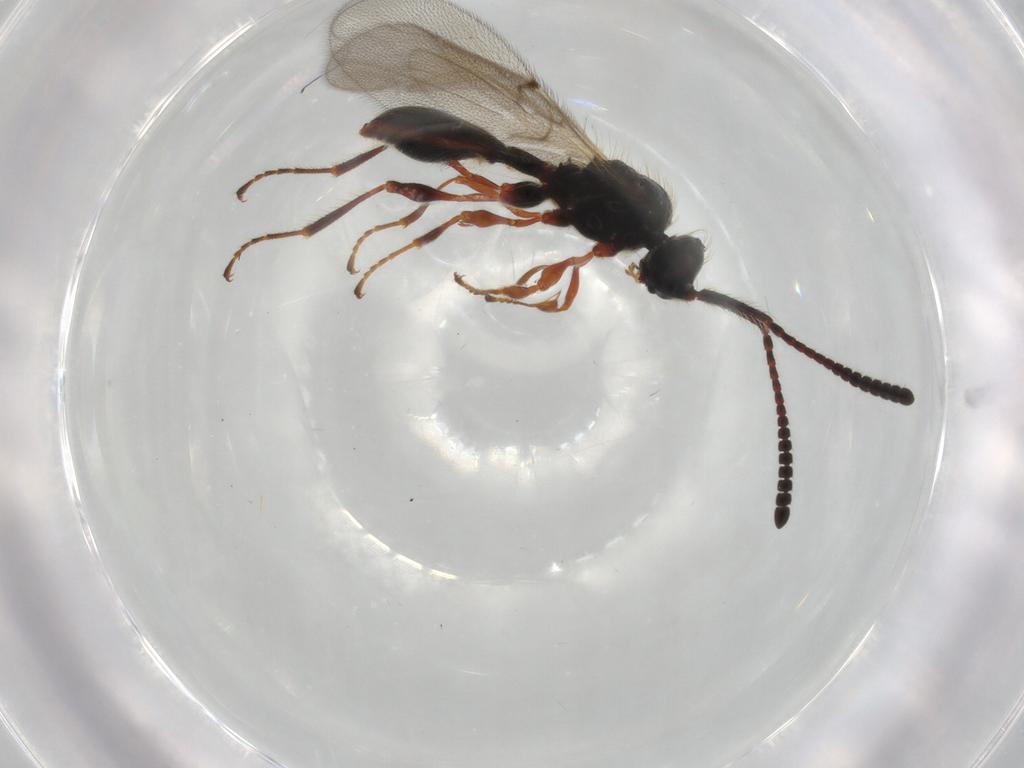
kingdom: Animalia
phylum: Arthropoda
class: Insecta
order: Hymenoptera
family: Diapriidae
